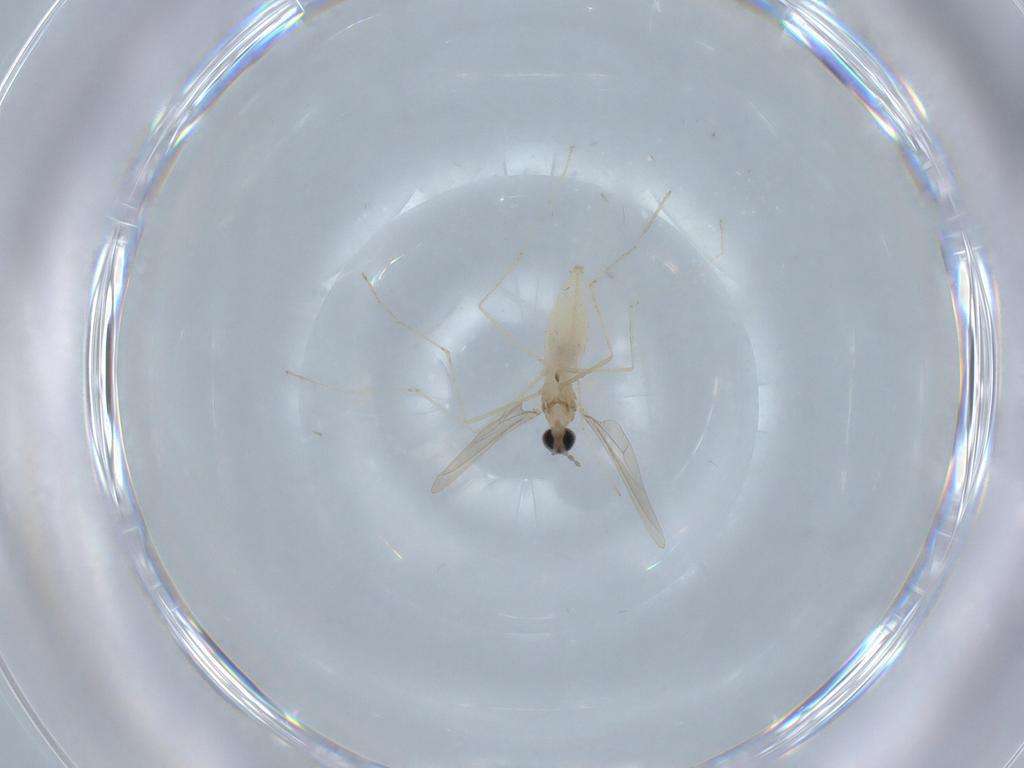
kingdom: Animalia
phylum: Arthropoda
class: Insecta
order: Diptera
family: Cecidomyiidae
